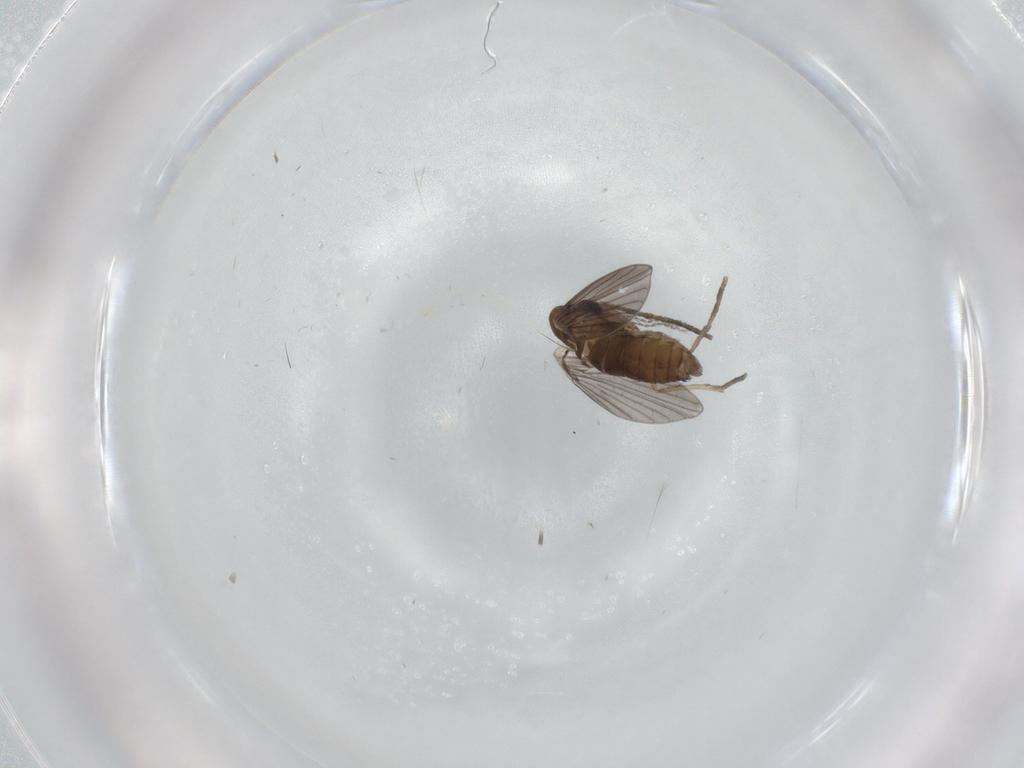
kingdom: Animalia
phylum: Arthropoda
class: Insecta
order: Diptera
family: Psychodidae
